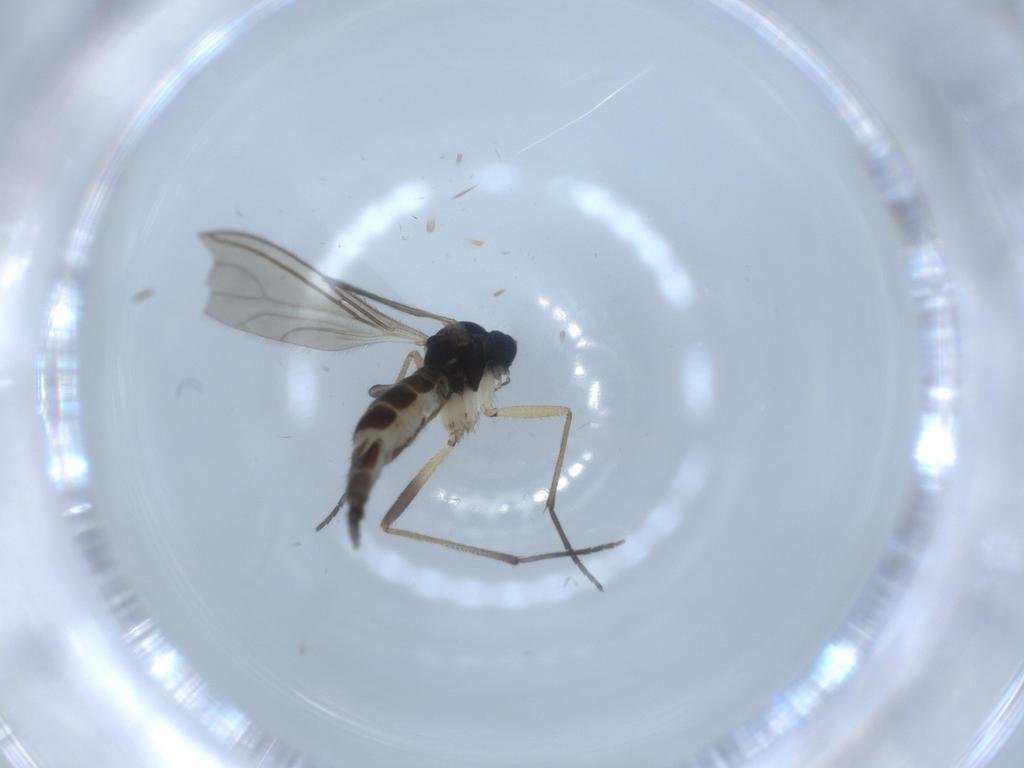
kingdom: Animalia
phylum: Arthropoda
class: Insecta
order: Diptera
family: Sciaridae
